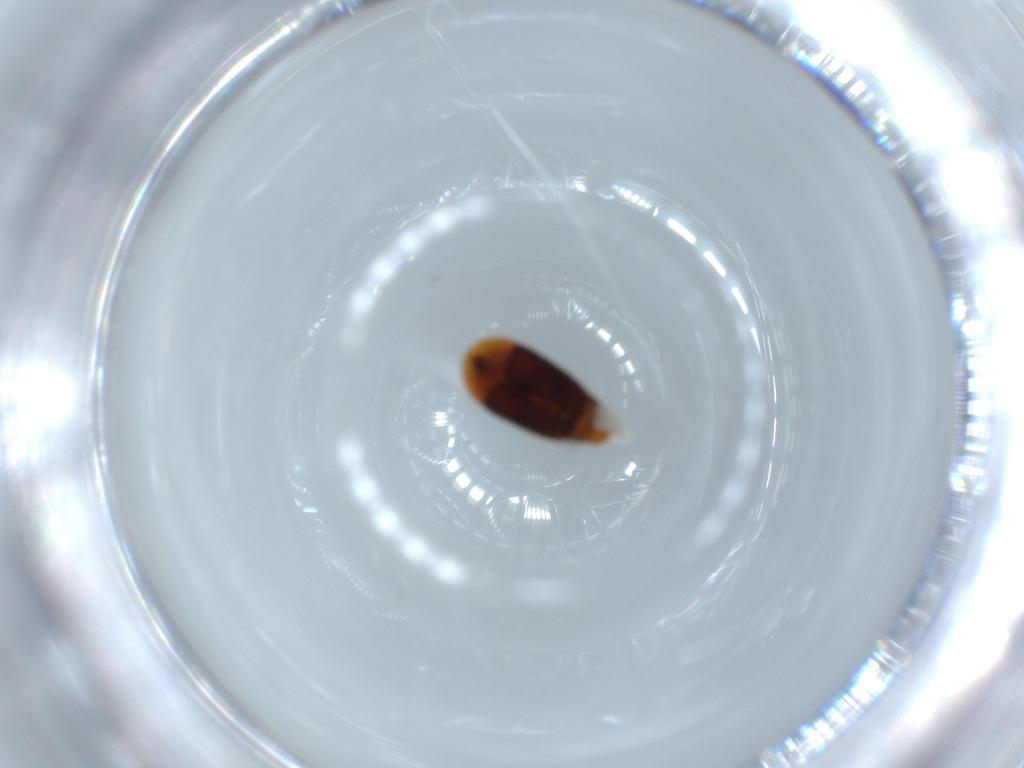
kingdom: Animalia
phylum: Arthropoda
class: Insecta
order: Coleoptera
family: Corylophidae
